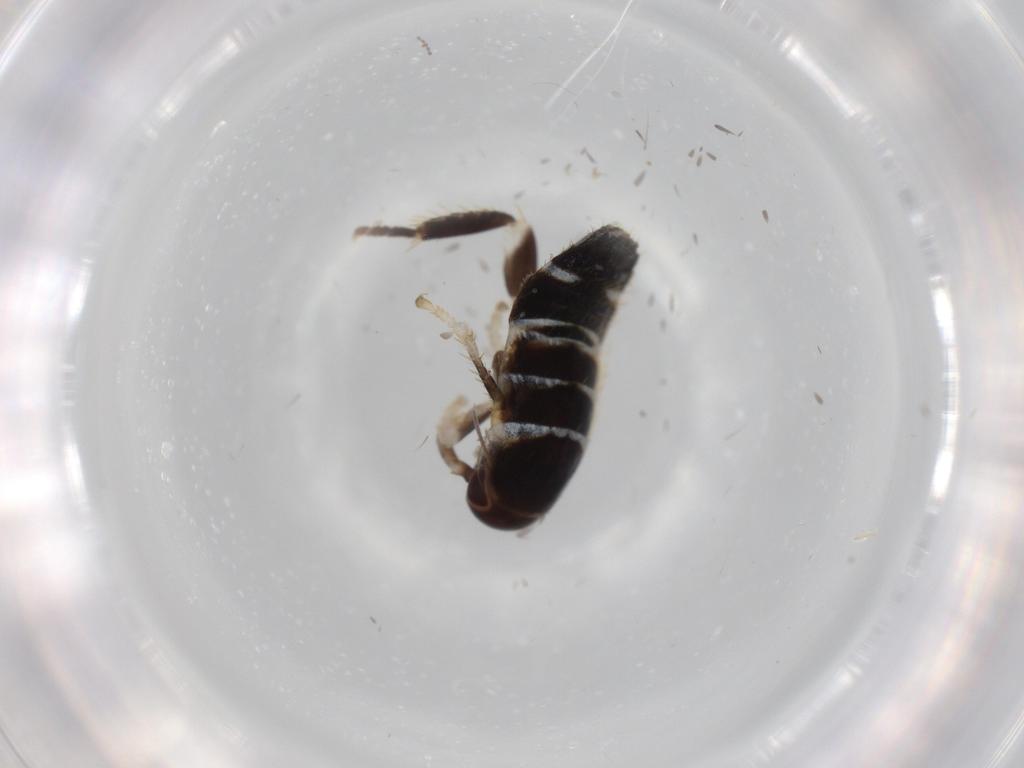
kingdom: Animalia
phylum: Arthropoda
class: Insecta
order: Blattodea
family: Ectobiidae
